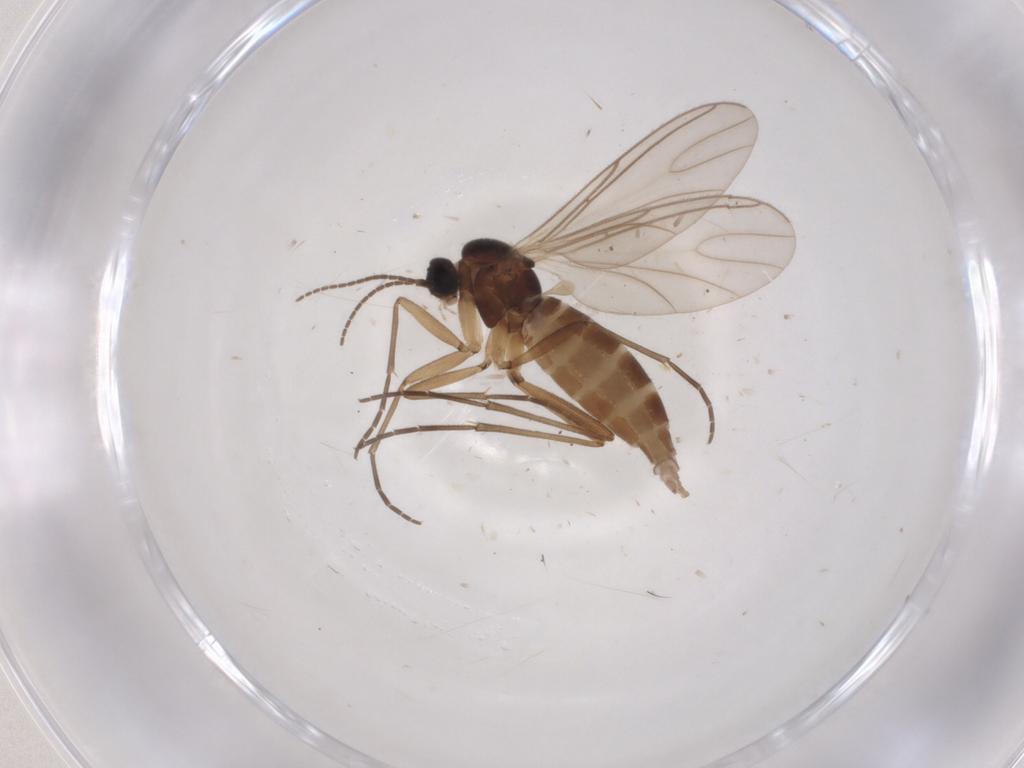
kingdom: Animalia
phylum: Arthropoda
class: Insecta
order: Diptera
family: Sciaridae
